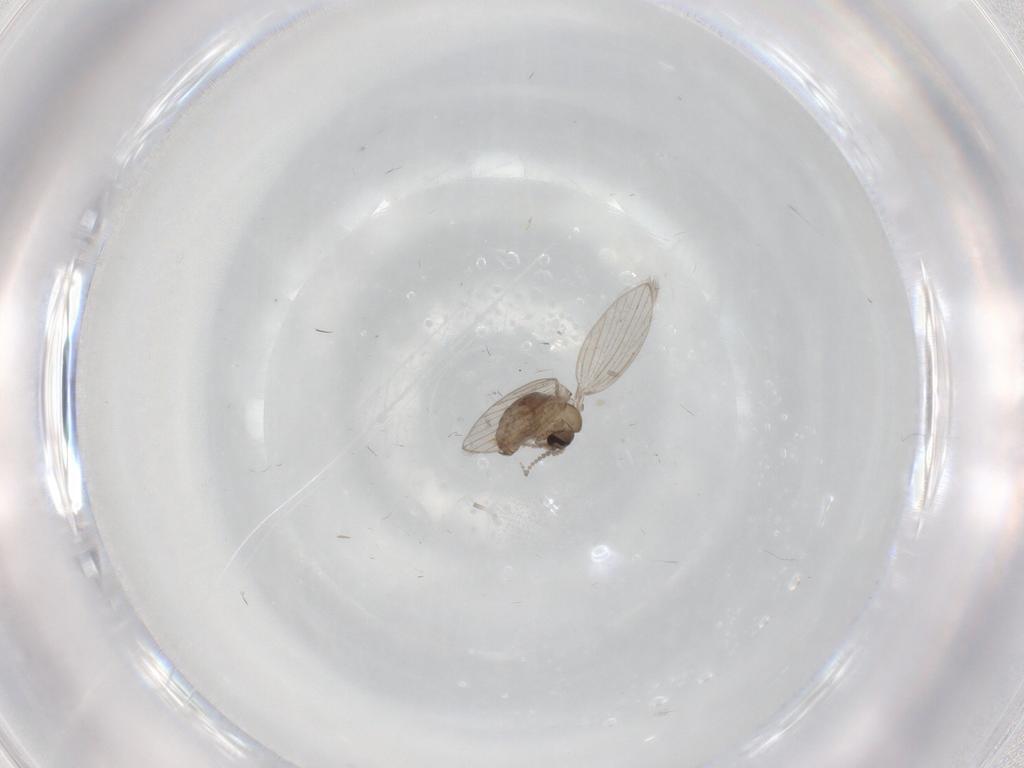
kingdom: Animalia
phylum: Arthropoda
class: Insecta
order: Diptera
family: Psychodidae
